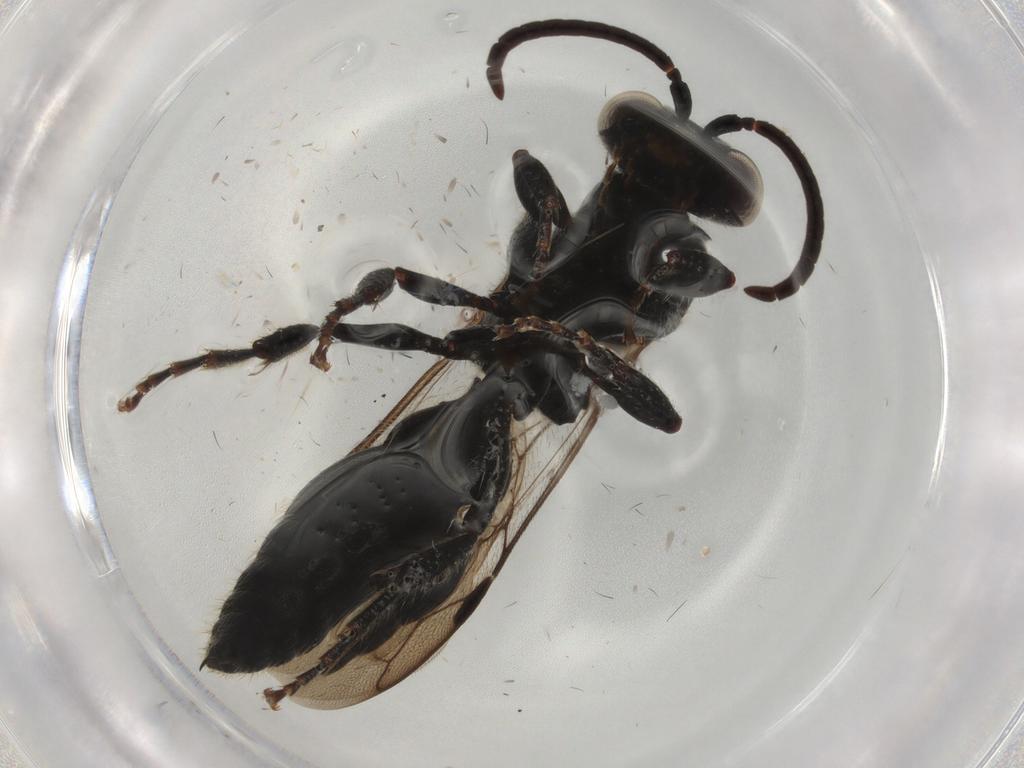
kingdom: Animalia
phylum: Arthropoda
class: Insecta
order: Hymenoptera
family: Tiphiidae
